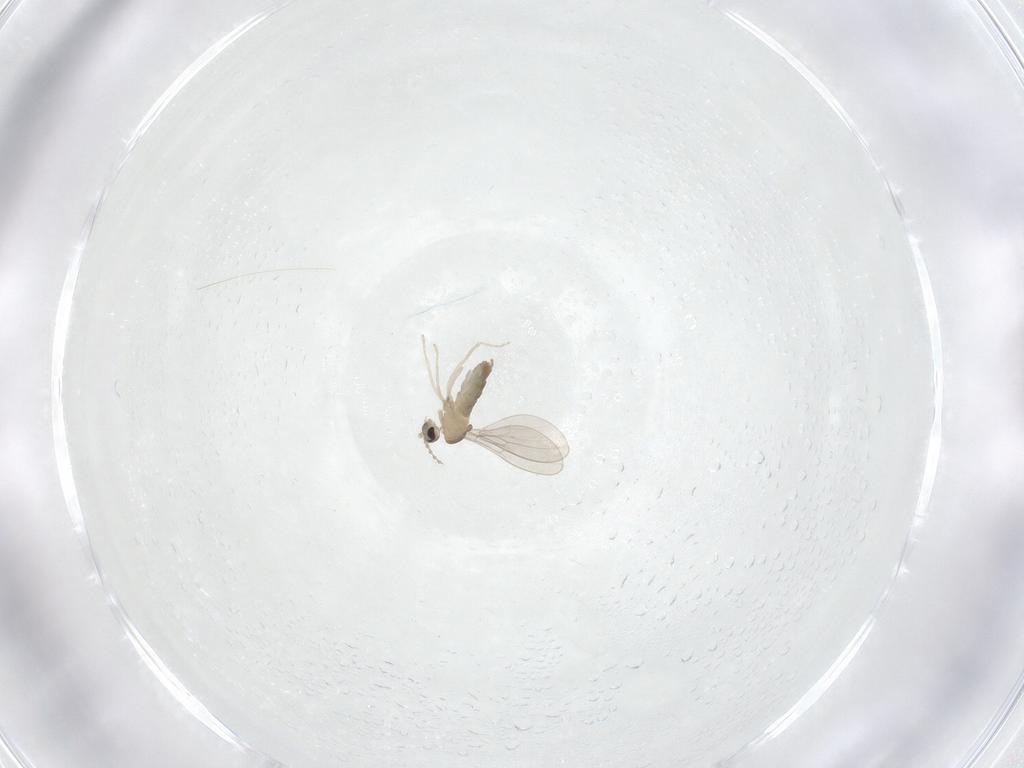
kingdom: Animalia
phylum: Arthropoda
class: Insecta
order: Diptera
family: Cecidomyiidae
